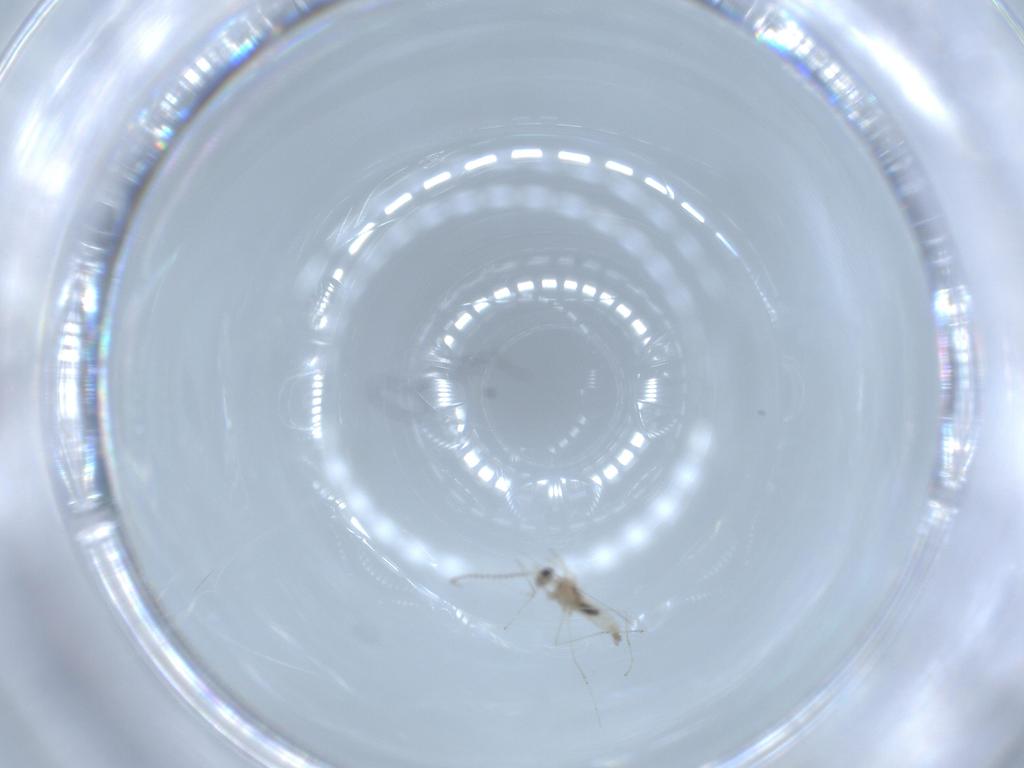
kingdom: Animalia
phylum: Arthropoda
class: Insecta
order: Diptera
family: Cecidomyiidae
